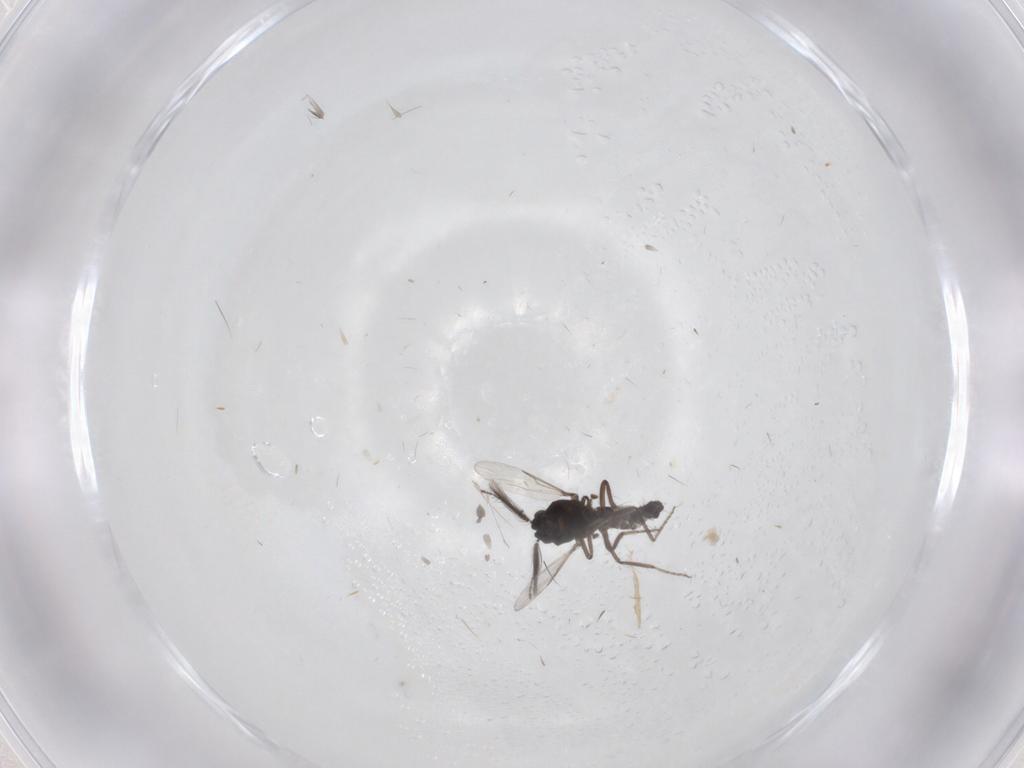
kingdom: Animalia
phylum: Arthropoda
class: Insecta
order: Diptera
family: Ceratopogonidae
